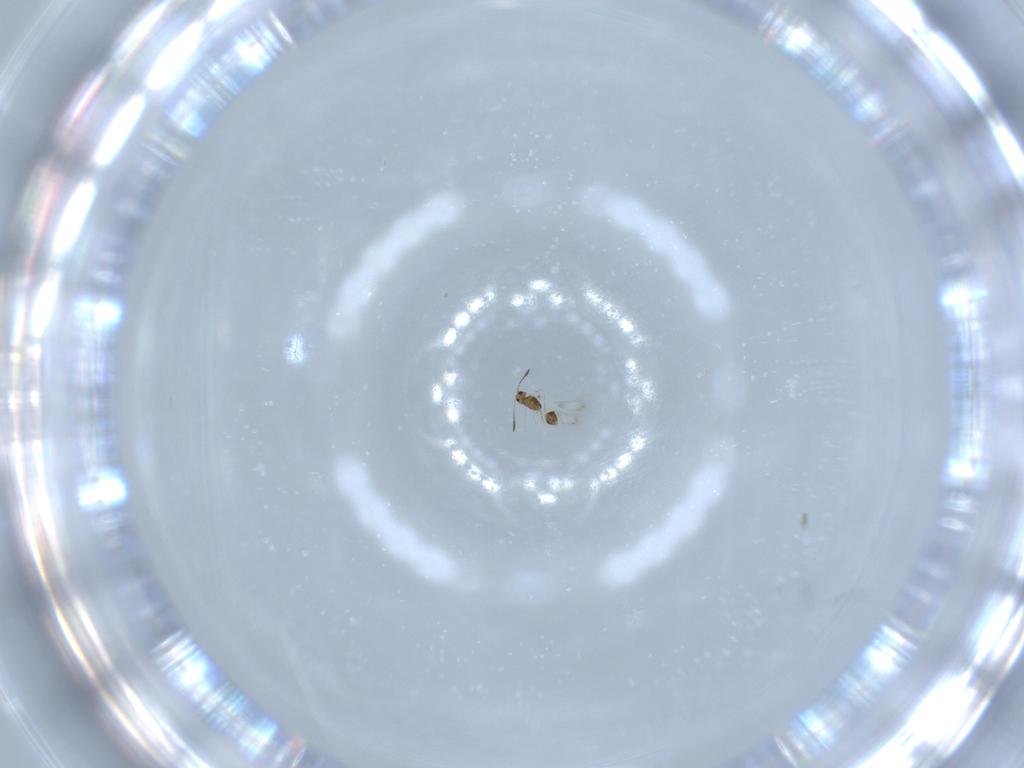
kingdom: Animalia
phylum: Arthropoda
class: Insecta
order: Hymenoptera
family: Mymarommatidae
